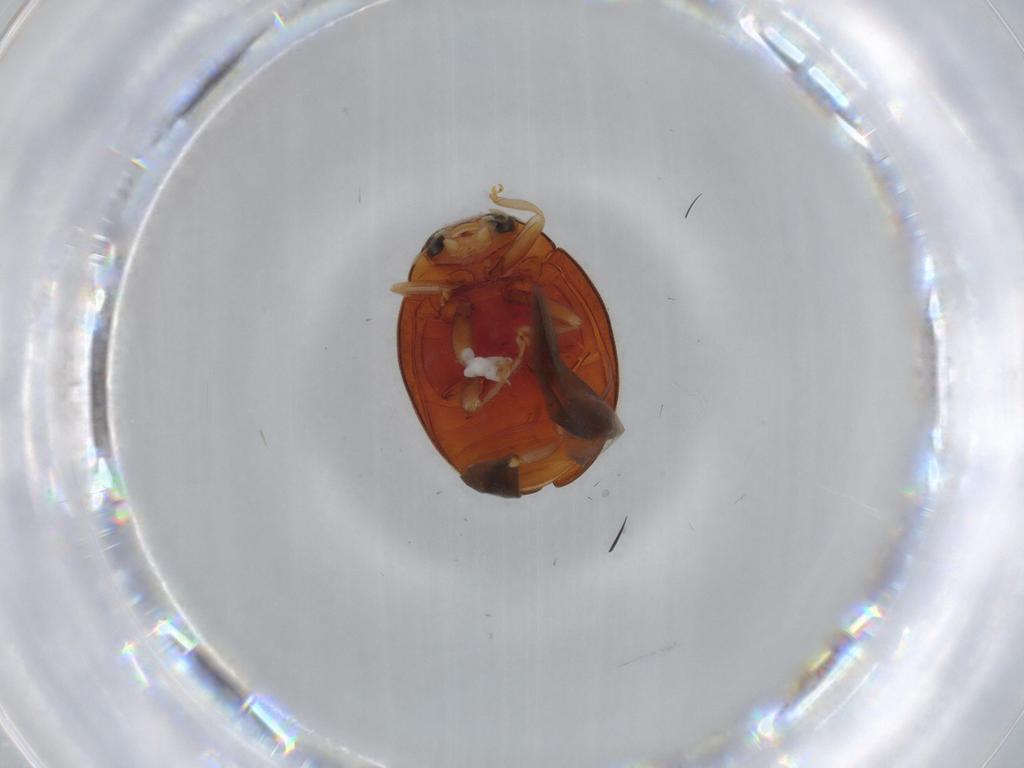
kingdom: Animalia
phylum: Arthropoda
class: Insecta
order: Coleoptera
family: Coccinellidae
